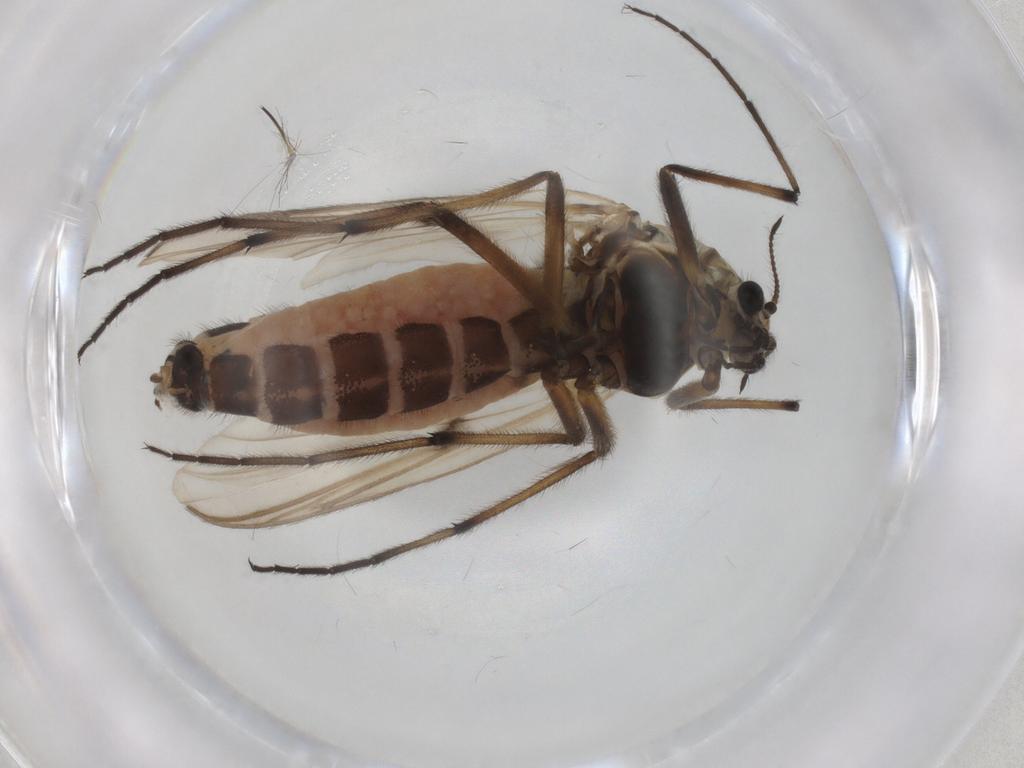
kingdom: Animalia
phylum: Arthropoda
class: Insecta
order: Diptera
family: Chironomidae
